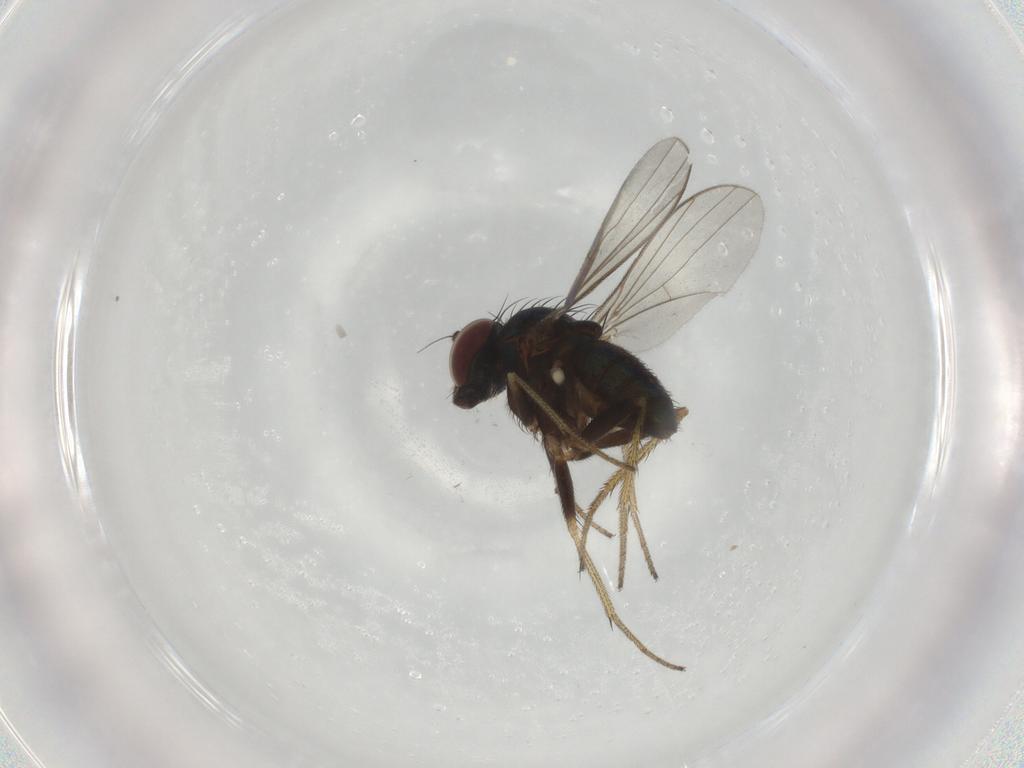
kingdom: Animalia
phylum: Arthropoda
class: Insecta
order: Diptera
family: Dolichopodidae
